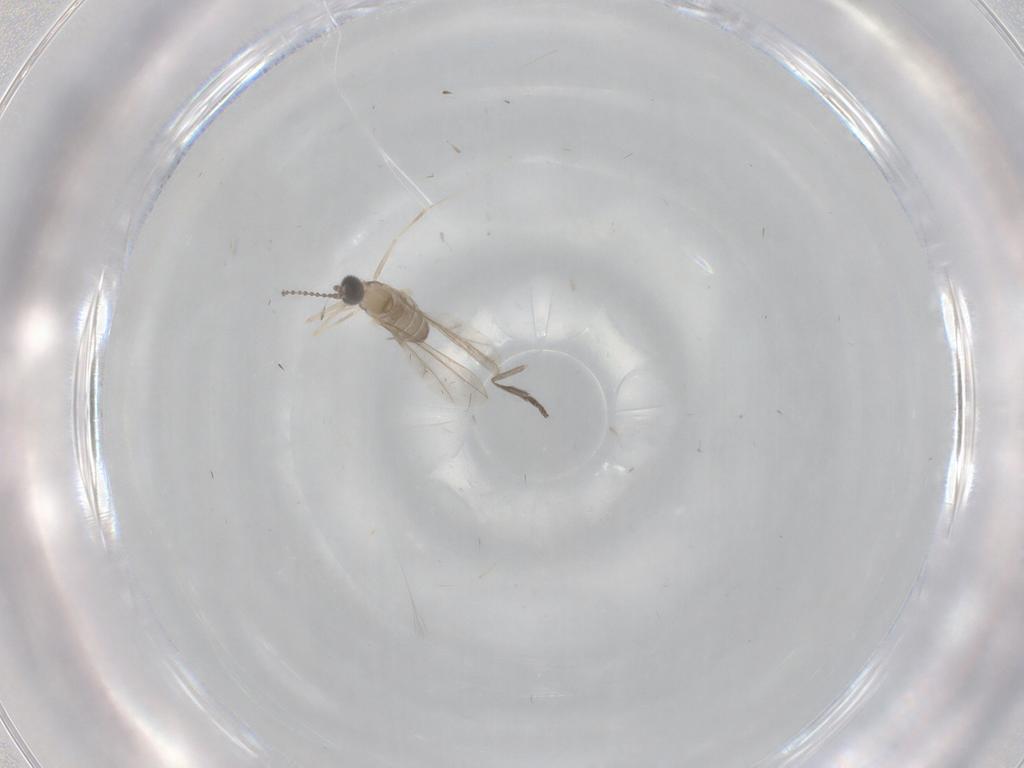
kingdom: Animalia
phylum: Arthropoda
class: Insecta
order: Diptera
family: Cecidomyiidae
